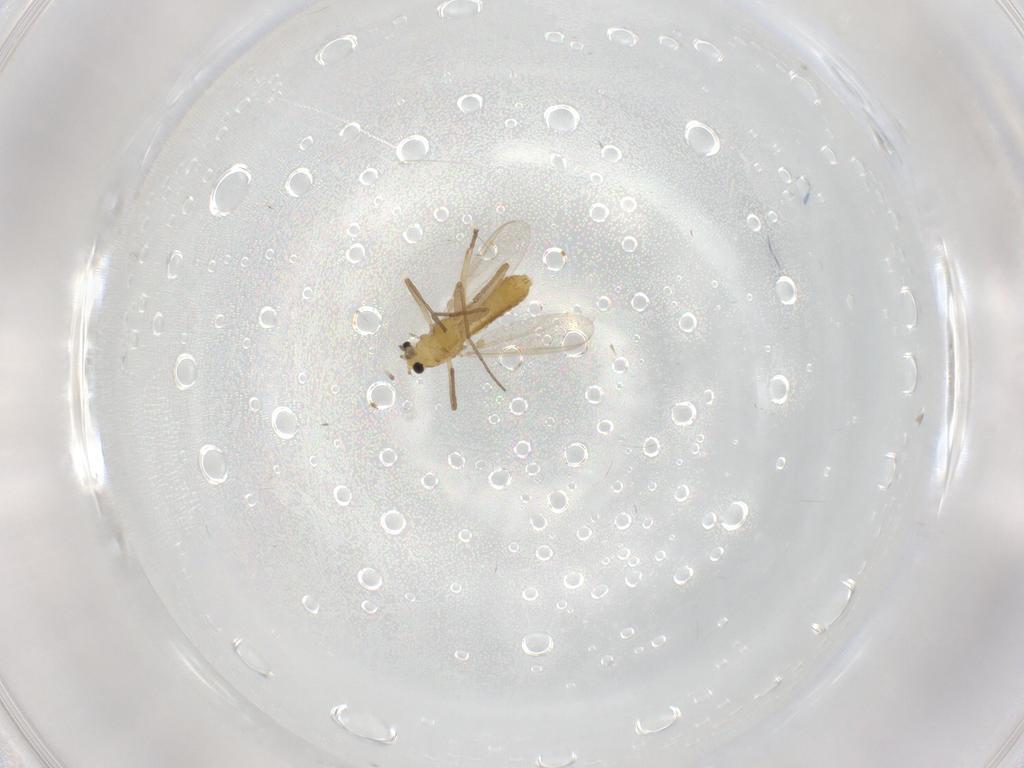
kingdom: Animalia
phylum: Arthropoda
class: Insecta
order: Diptera
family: Chironomidae
